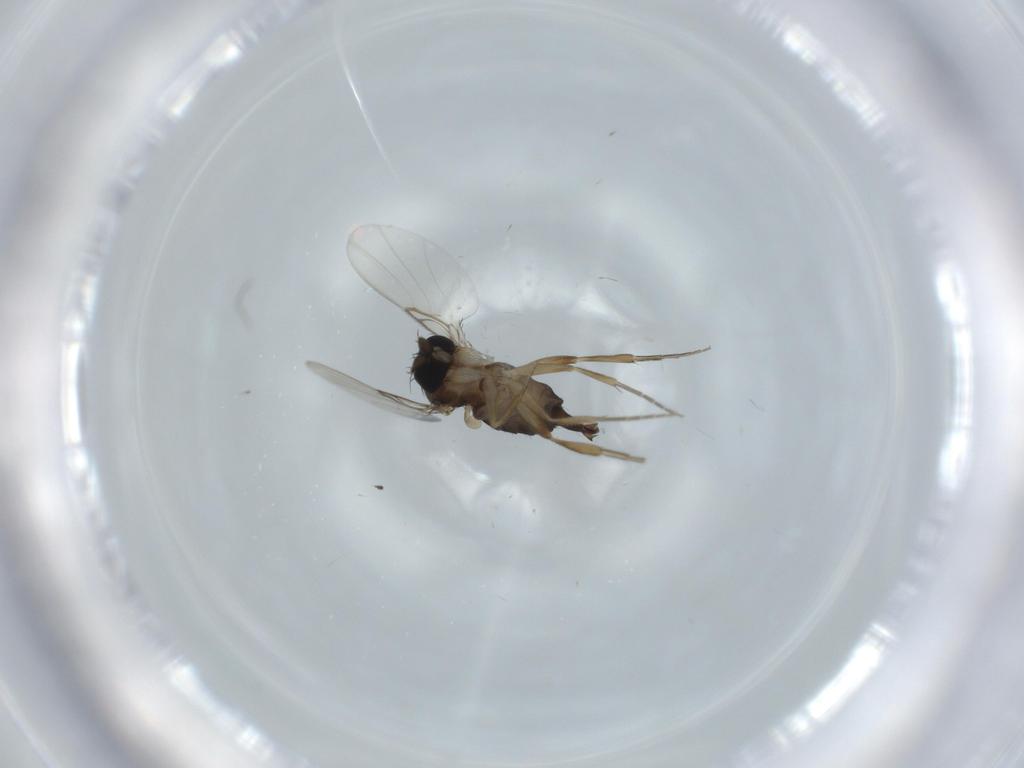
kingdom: Animalia
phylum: Arthropoda
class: Insecta
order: Diptera
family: Phoridae
